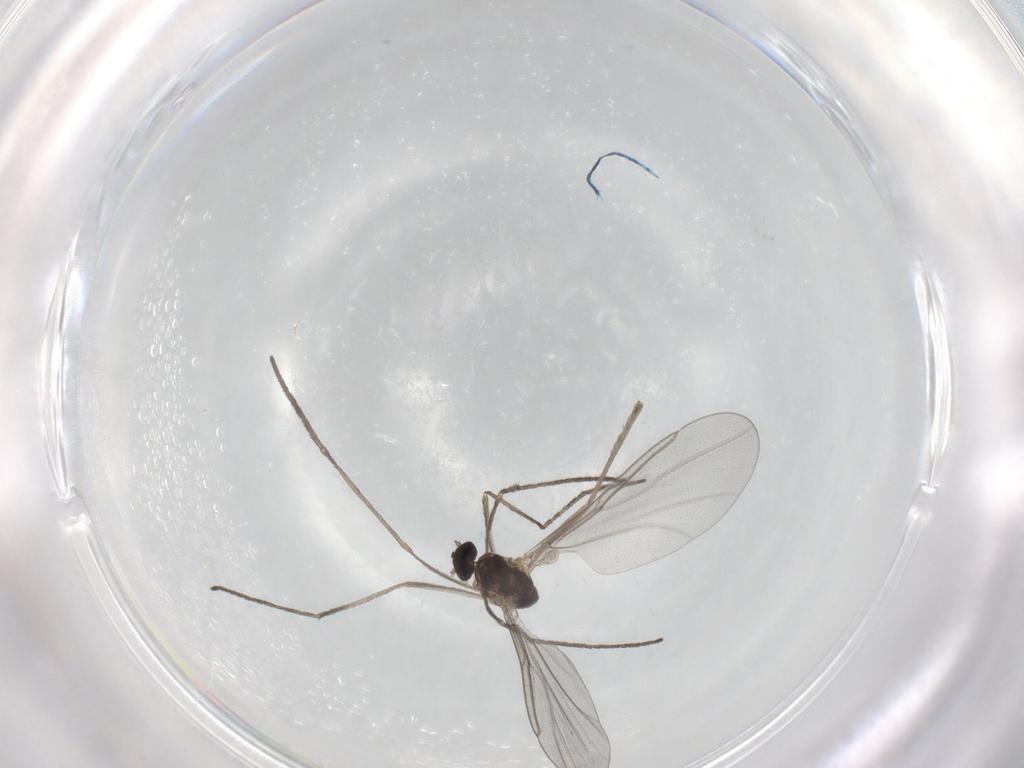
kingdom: Animalia
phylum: Arthropoda
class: Insecta
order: Diptera
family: Cecidomyiidae
